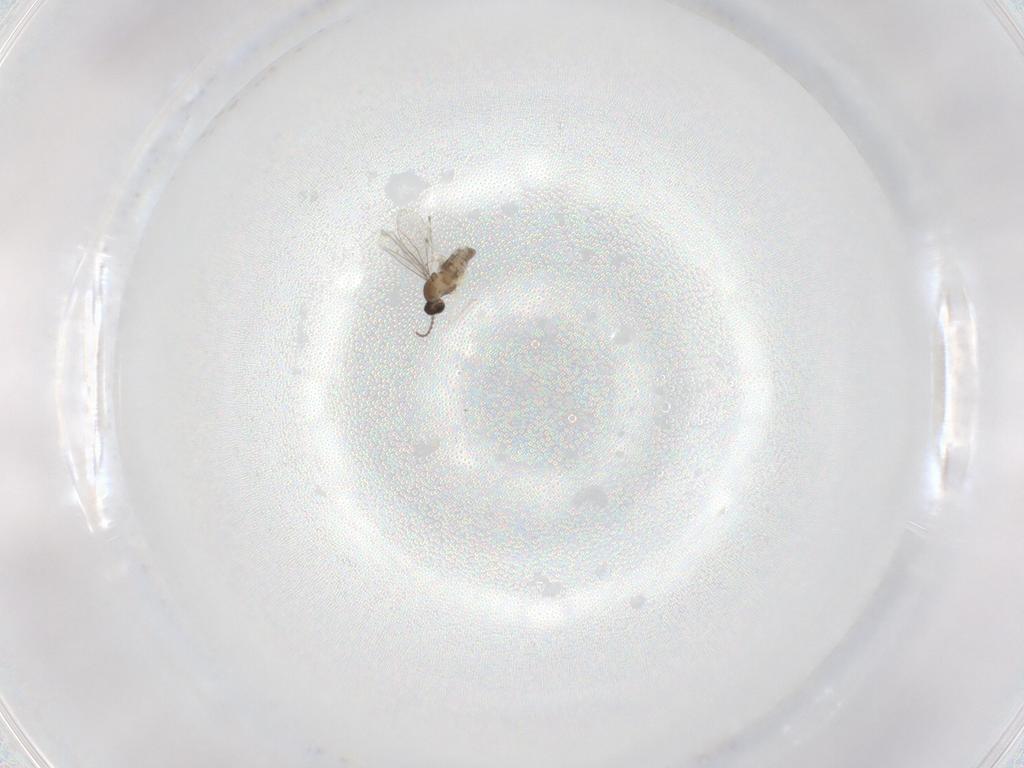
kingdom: Animalia
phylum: Arthropoda
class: Insecta
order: Diptera
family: Cecidomyiidae
